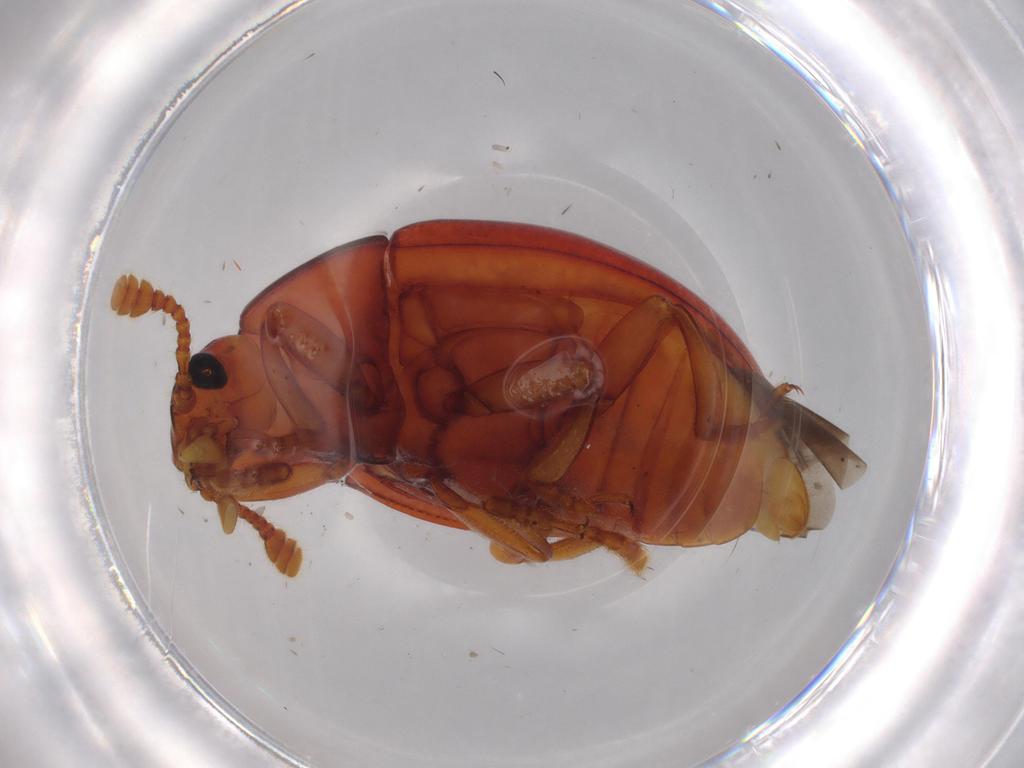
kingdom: Animalia
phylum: Arthropoda
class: Insecta
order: Coleoptera
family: Erotylidae
